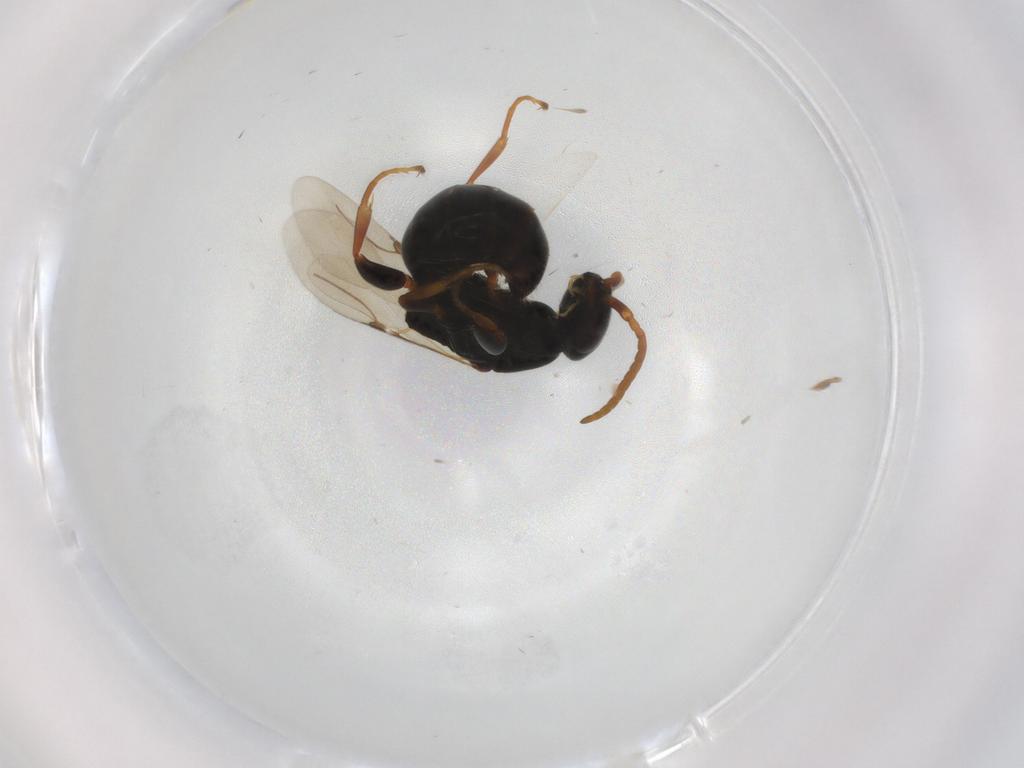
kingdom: Animalia
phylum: Arthropoda
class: Insecta
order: Hymenoptera
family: Bethylidae
